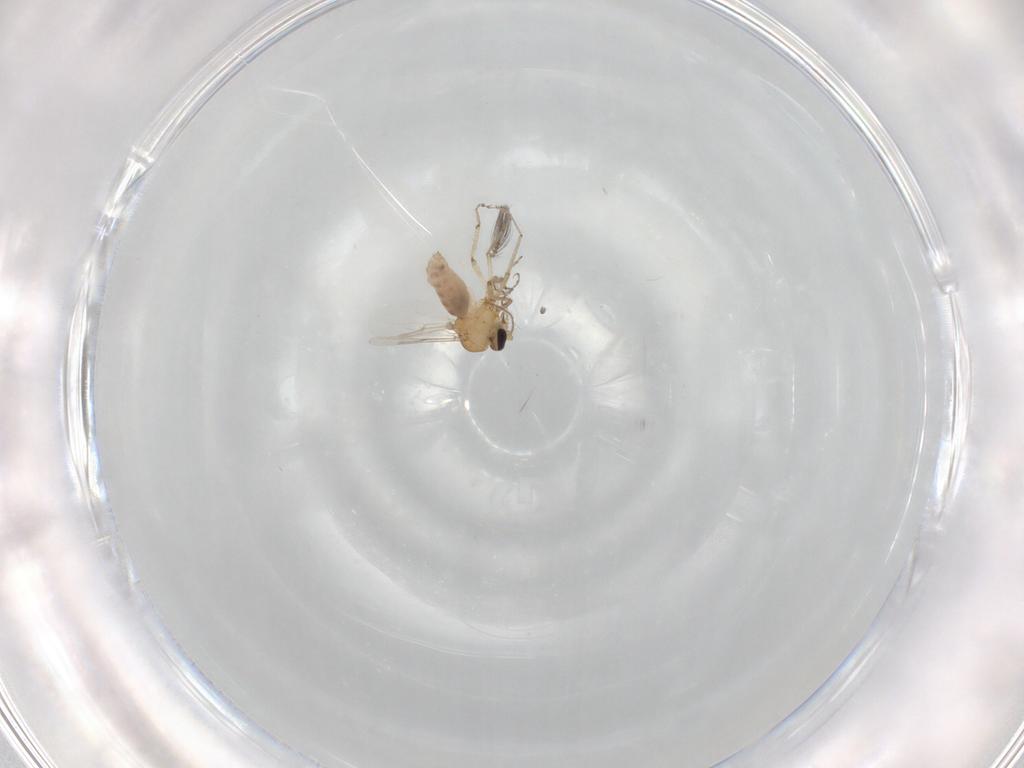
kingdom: Animalia
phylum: Arthropoda
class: Insecta
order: Diptera
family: Ceratopogonidae
